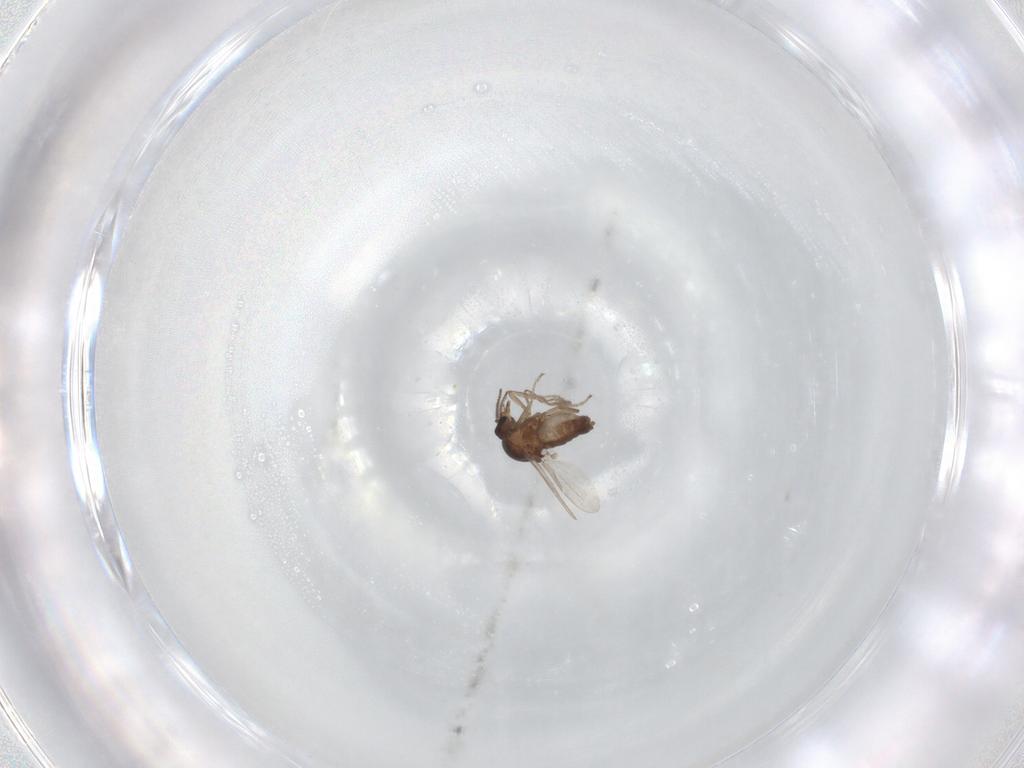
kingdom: Animalia
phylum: Arthropoda
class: Insecta
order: Diptera
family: Ceratopogonidae
